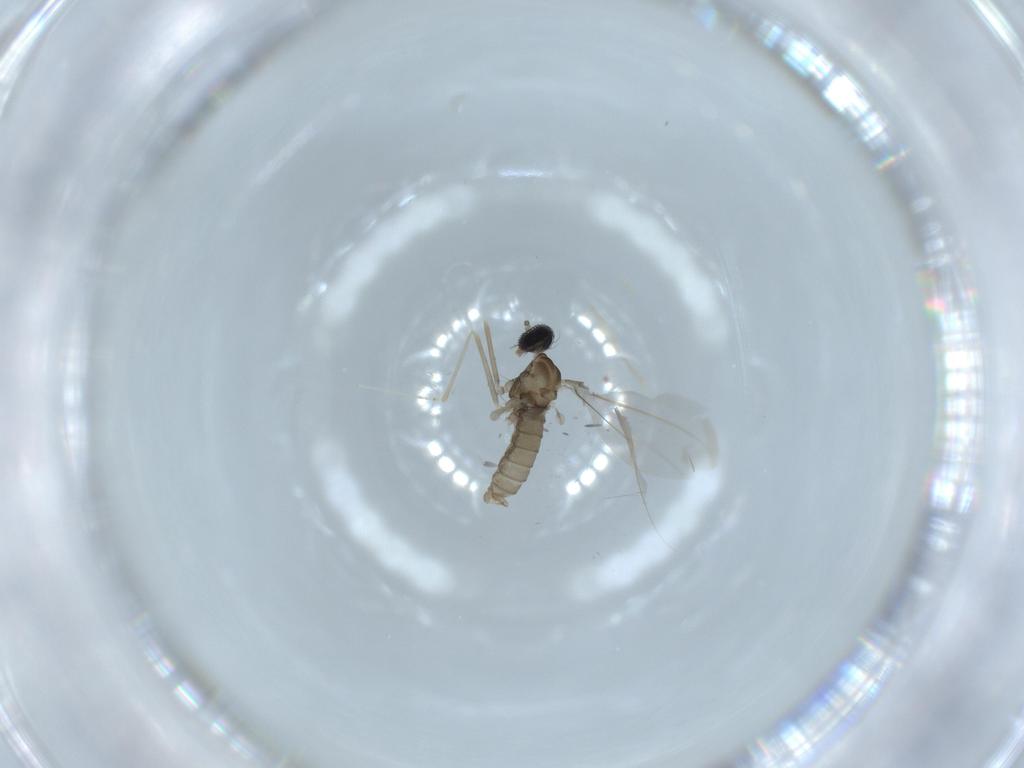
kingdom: Animalia
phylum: Arthropoda
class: Insecta
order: Diptera
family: Cecidomyiidae
